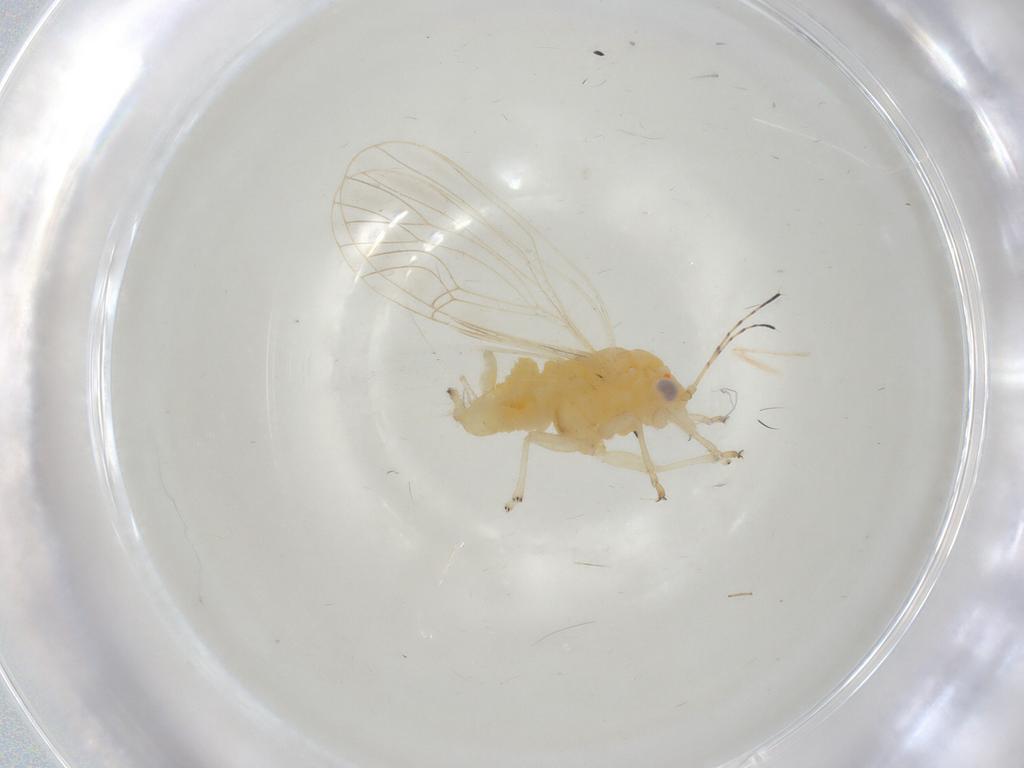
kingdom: Animalia
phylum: Arthropoda
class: Insecta
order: Hemiptera
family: Aphididae
